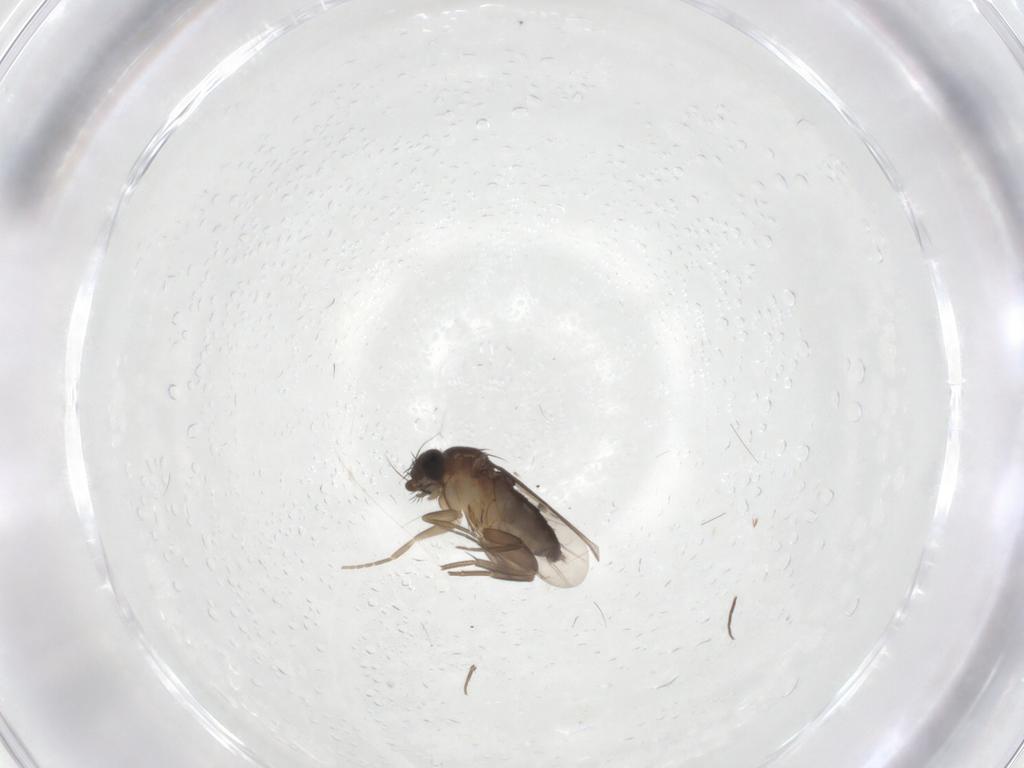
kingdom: Animalia
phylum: Arthropoda
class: Insecta
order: Diptera
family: Phoridae
